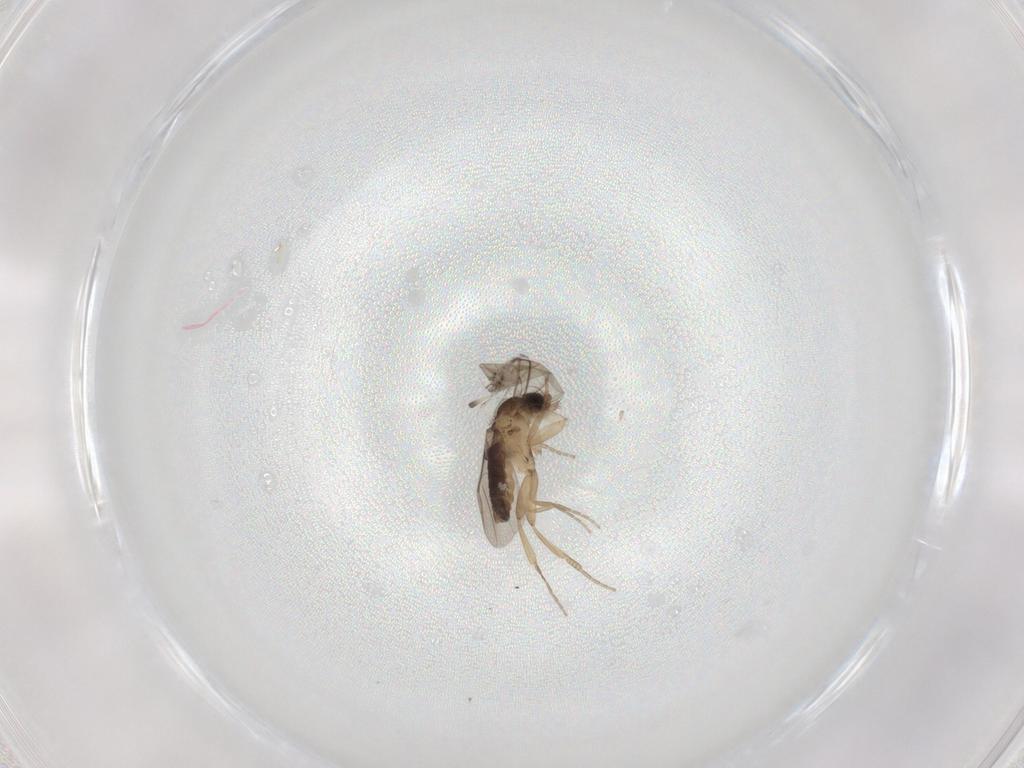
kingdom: Animalia
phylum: Arthropoda
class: Insecta
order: Diptera
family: Phoridae
